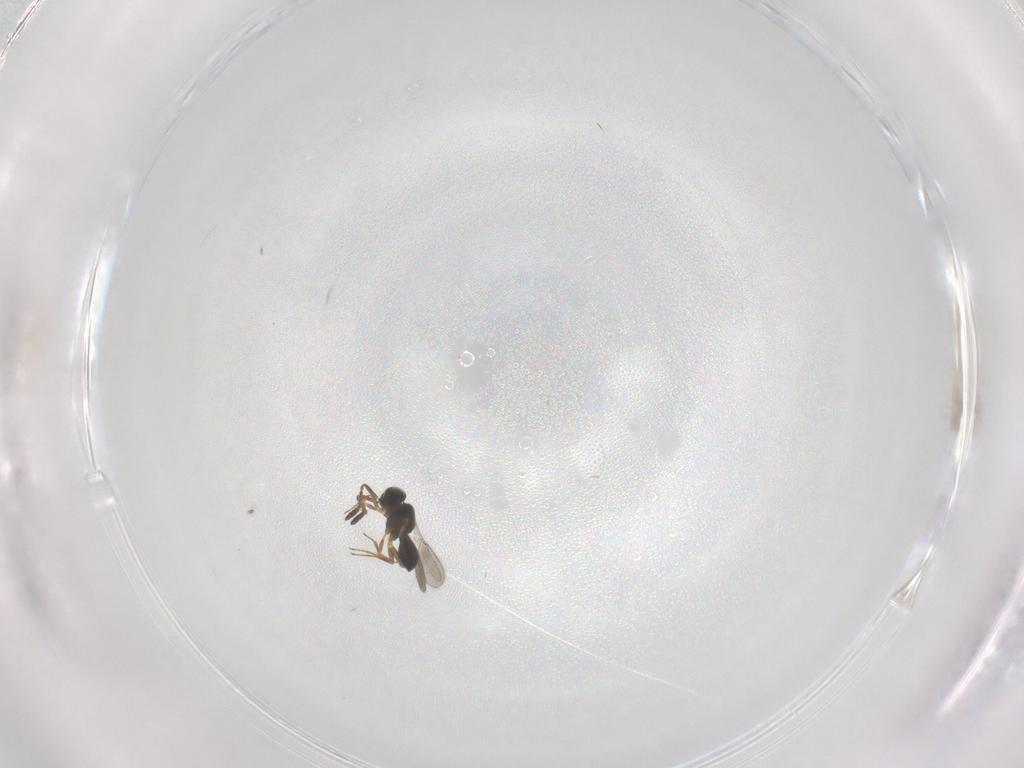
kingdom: Animalia
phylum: Arthropoda
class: Insecta
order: Hymenoptera
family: Scelionidae
